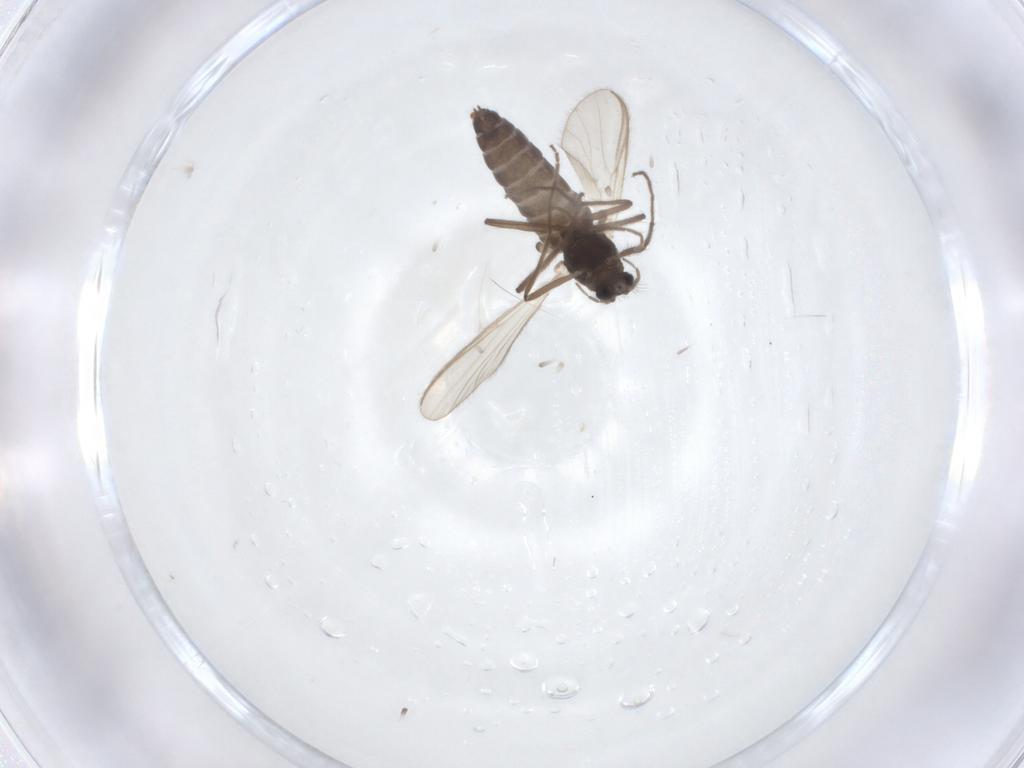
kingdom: Animalia
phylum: Arthropoda
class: Insecta
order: Diptera
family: Chironomidae
